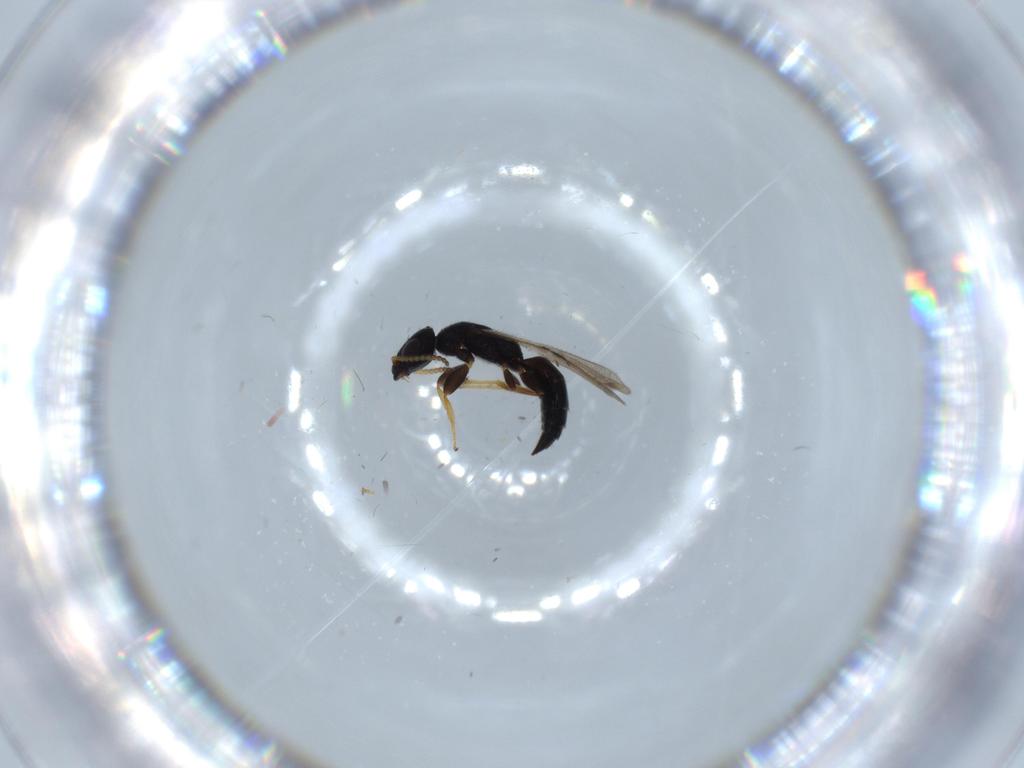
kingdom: Animalia
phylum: Arthropoda
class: Insecta
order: Hymenoptera
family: Bethylidae
